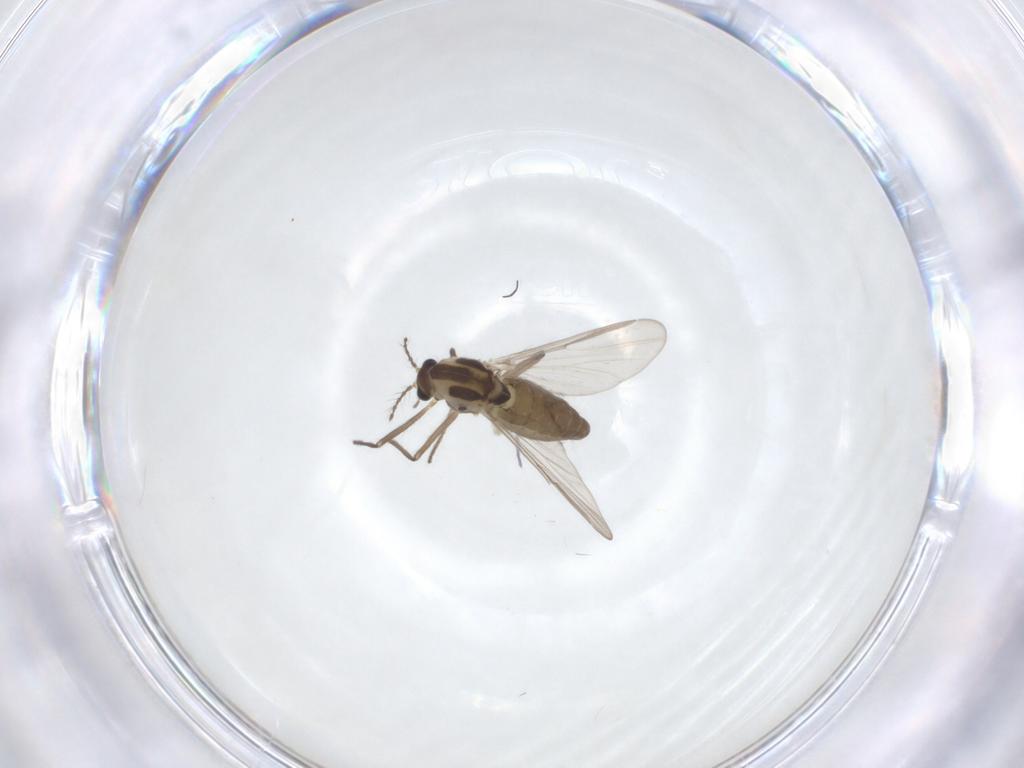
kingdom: Animalia
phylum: Arthropoda
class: Insecta
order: Diptera
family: Chironomidae
